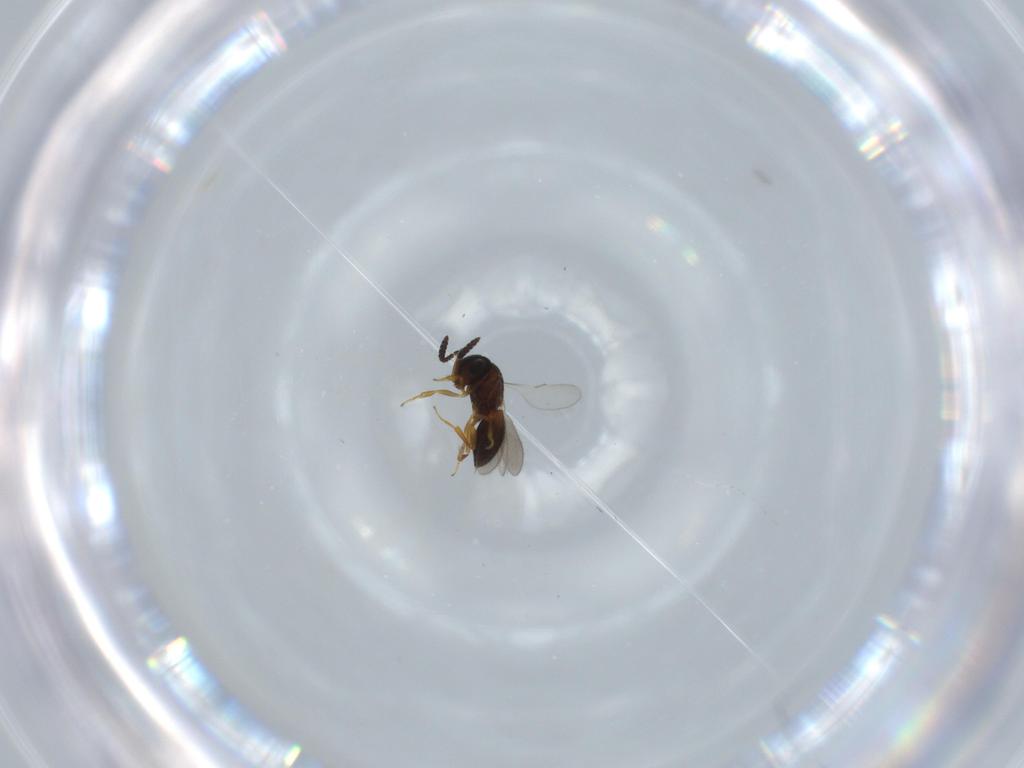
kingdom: Animalia
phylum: Arthropoda
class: Insecta
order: Hymenoptera
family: Scelionidae
